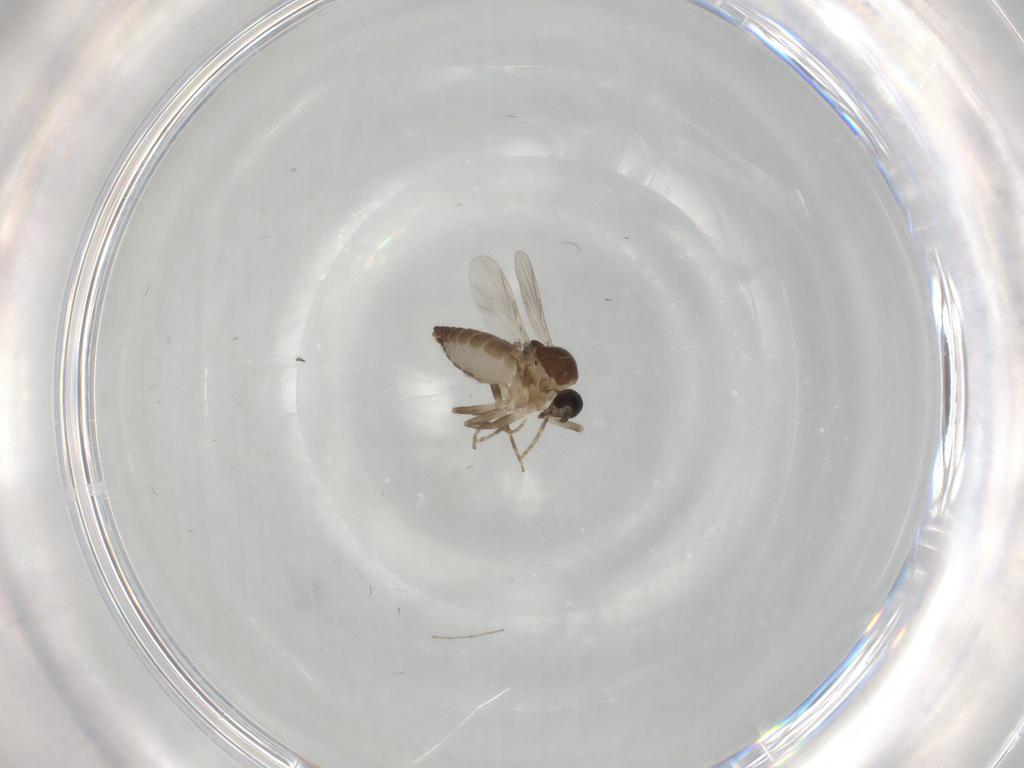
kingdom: Animalia
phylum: Arthropoda
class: Insecta
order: Diptera
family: Ceratopogonidae
